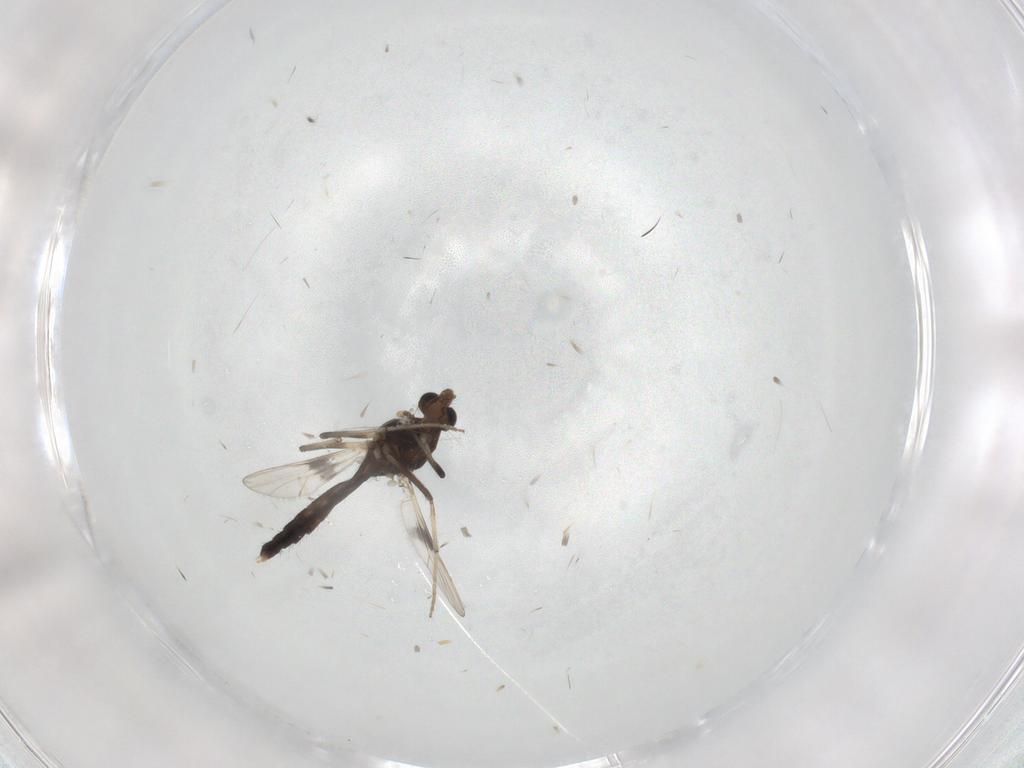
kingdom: Animalia
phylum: Arthropoda
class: Insecta
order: Diptera
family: Chironomidae
